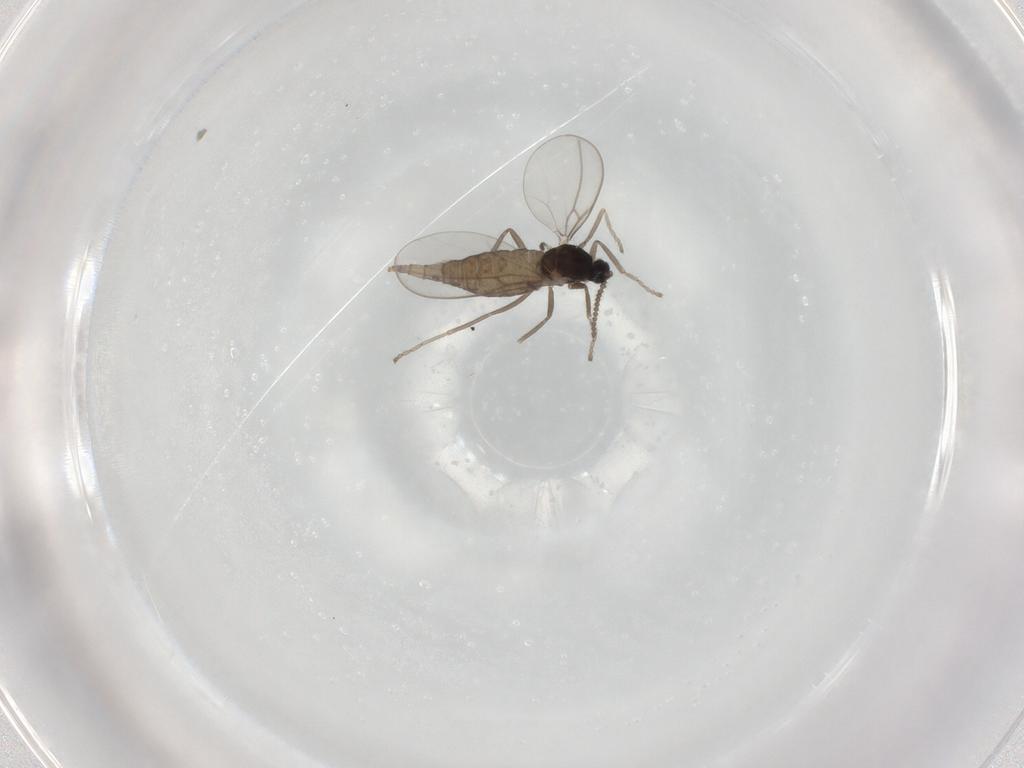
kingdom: Animalia
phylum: Arthropoda
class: Insecta
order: Diptera
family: Cecidomyiidae
